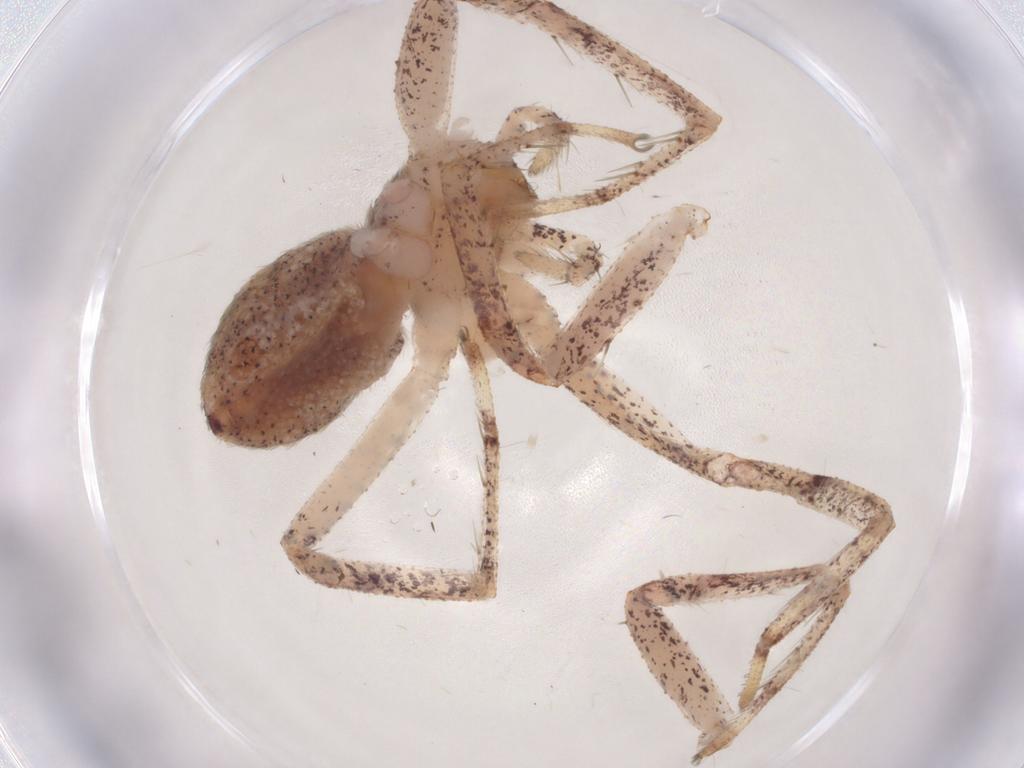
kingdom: Animalia
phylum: Arthropoda
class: Arachnida
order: Araneae
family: Philodromidae
